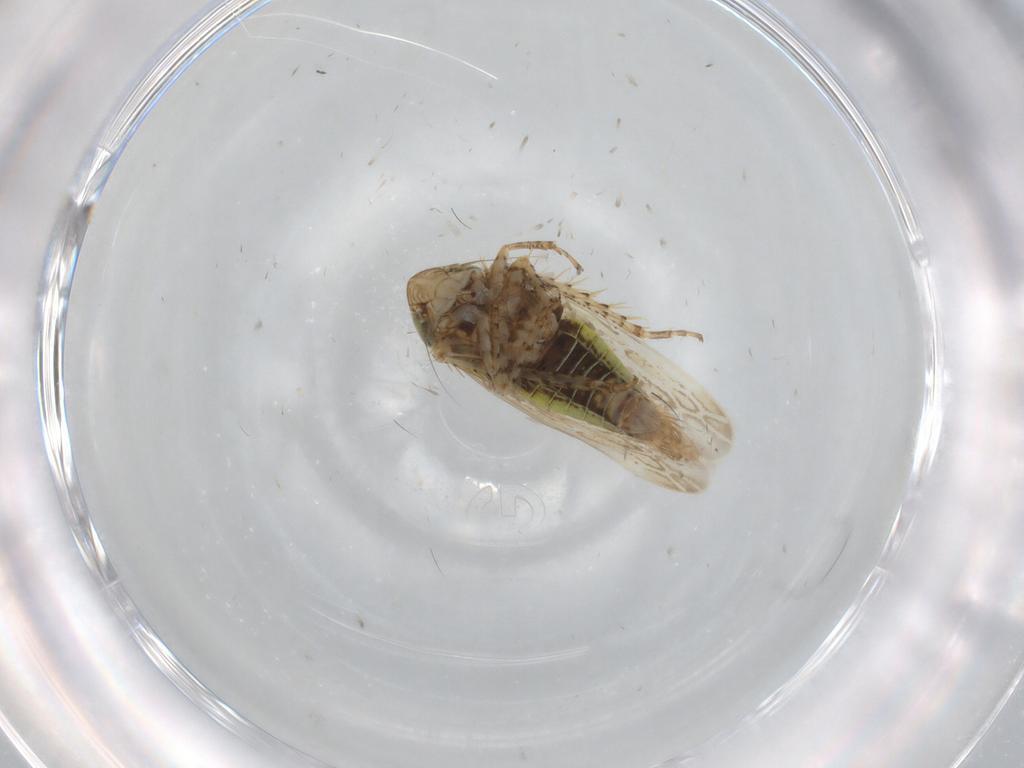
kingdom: Animalia
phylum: Arthropoda
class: Insecta
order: Hemiptera
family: Cicadellidae
